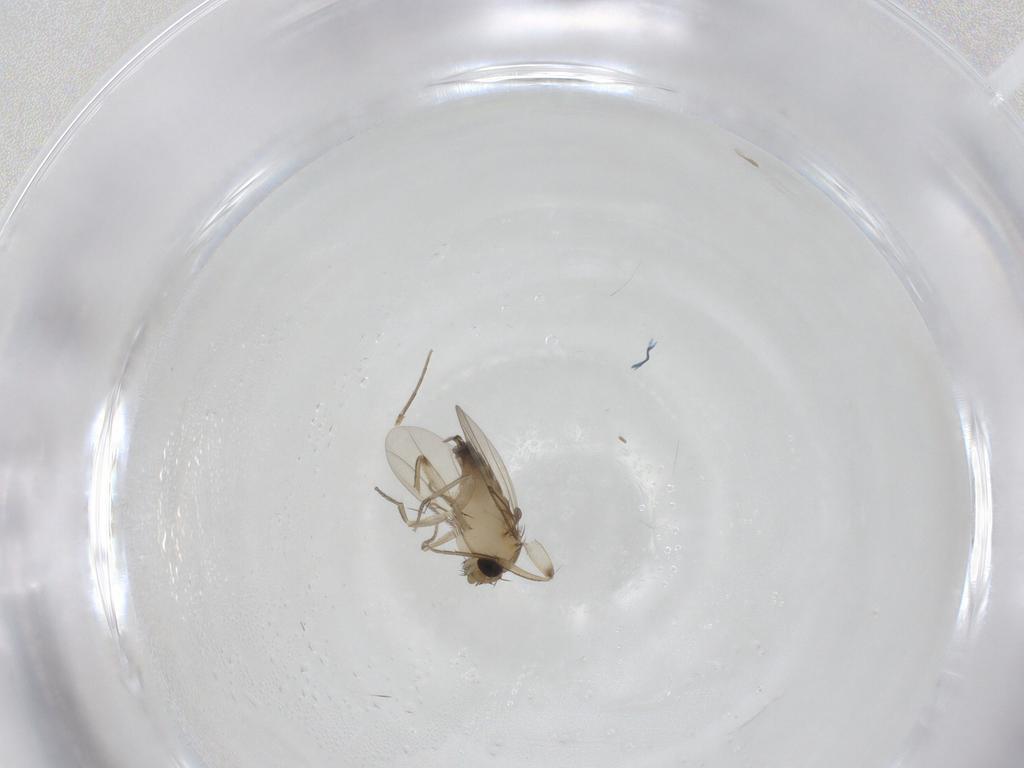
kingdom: Animalia
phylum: Arthropoda
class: Insecta
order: Diptera
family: Phoridae
